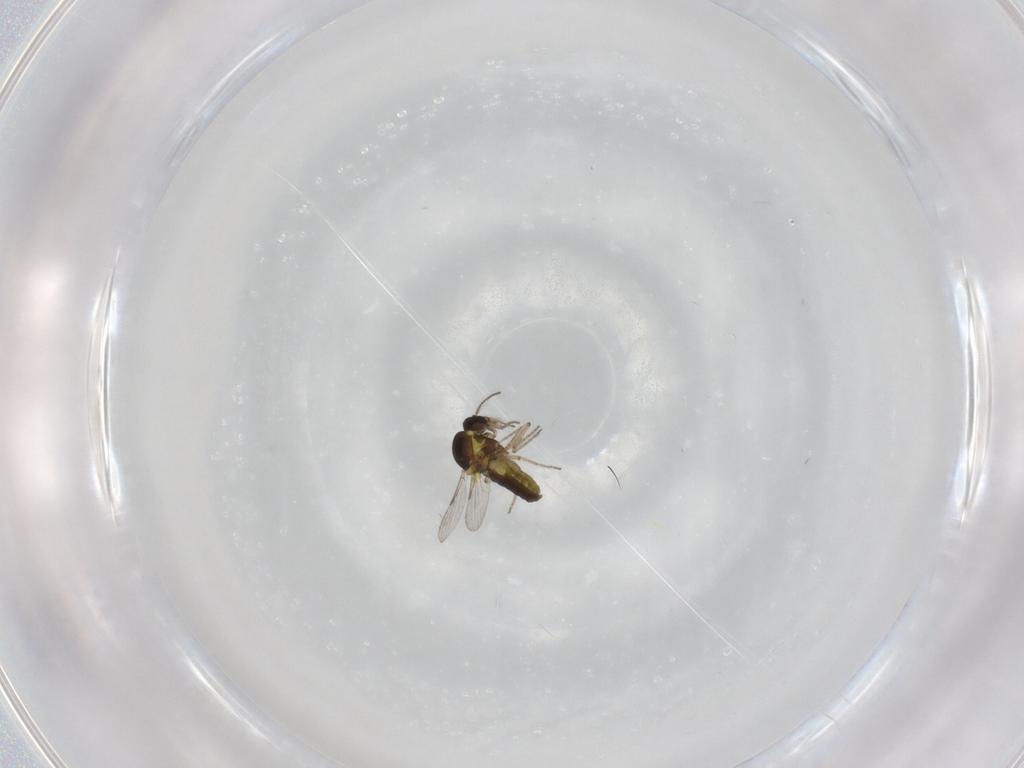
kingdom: Animalia
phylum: Arthropoda
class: Insecta
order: Diptera
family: Ceratopogonidae
